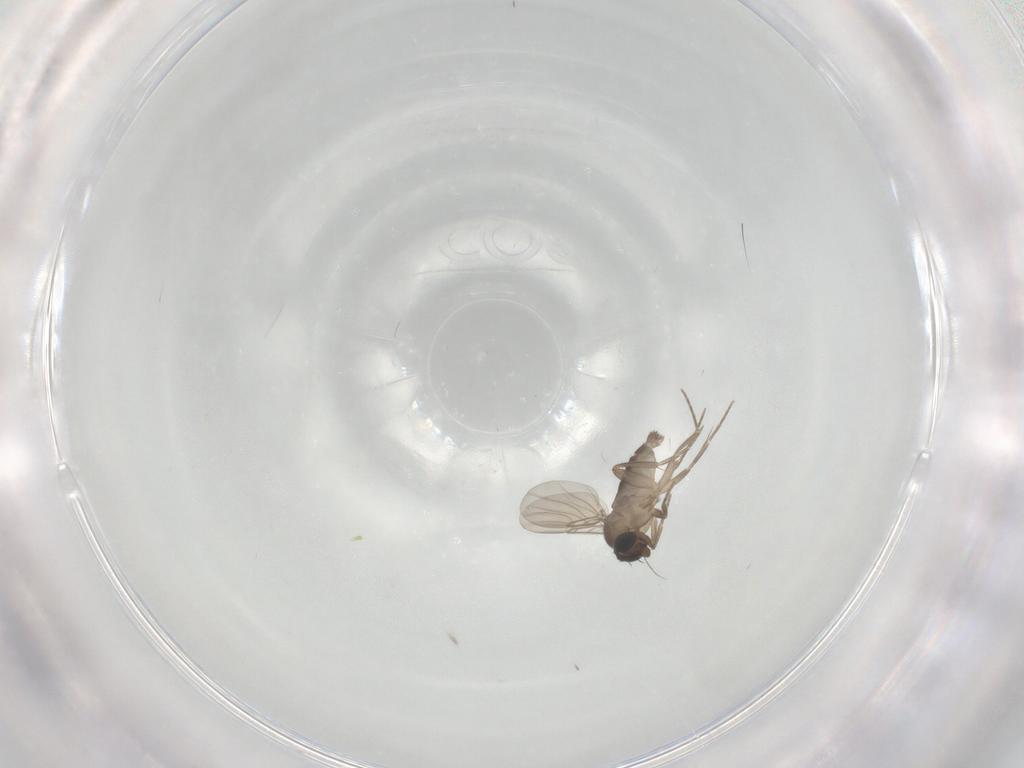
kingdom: Animalia
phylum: Arthropoda
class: Insecta
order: Diptera
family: Phoridae
